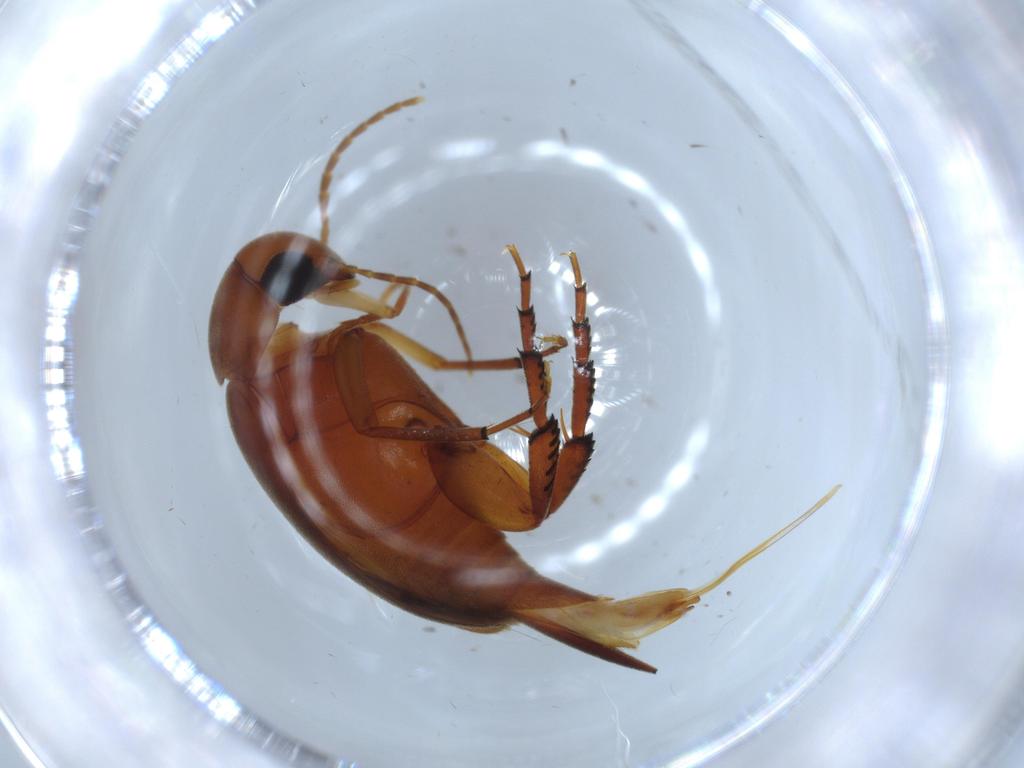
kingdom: Animalia
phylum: Arthropoda
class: Insecta
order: Coleoptera
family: Mordellidae
